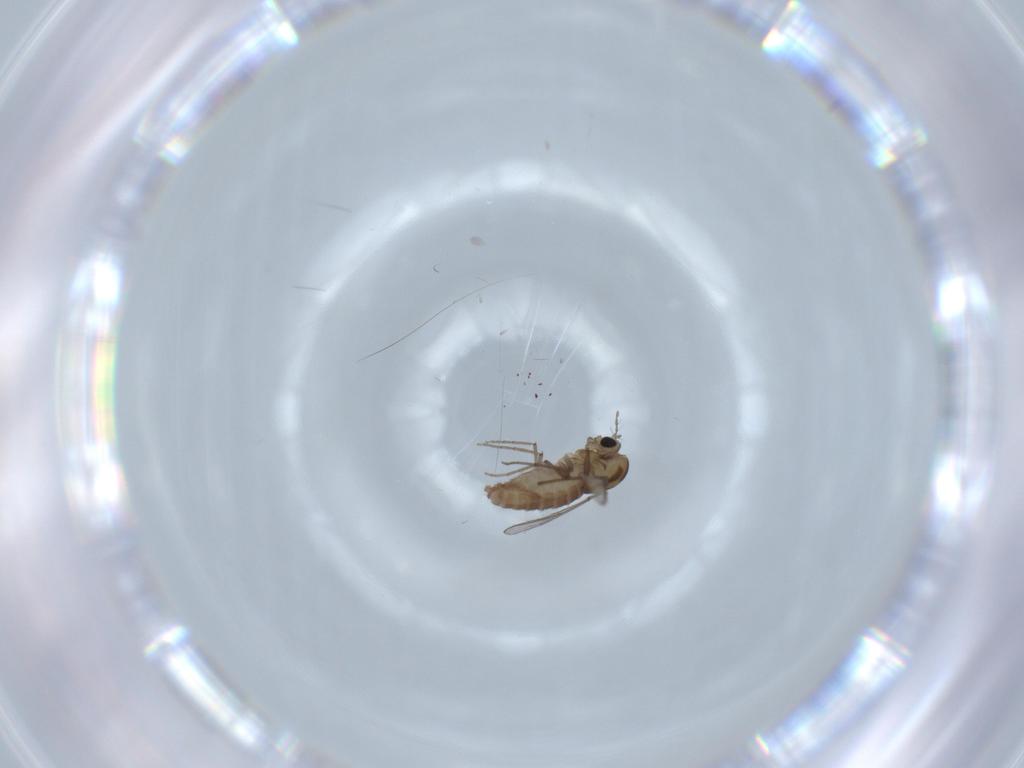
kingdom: Animalia
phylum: Arthropoda
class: Insecta
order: Diptera
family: Chironomidae
